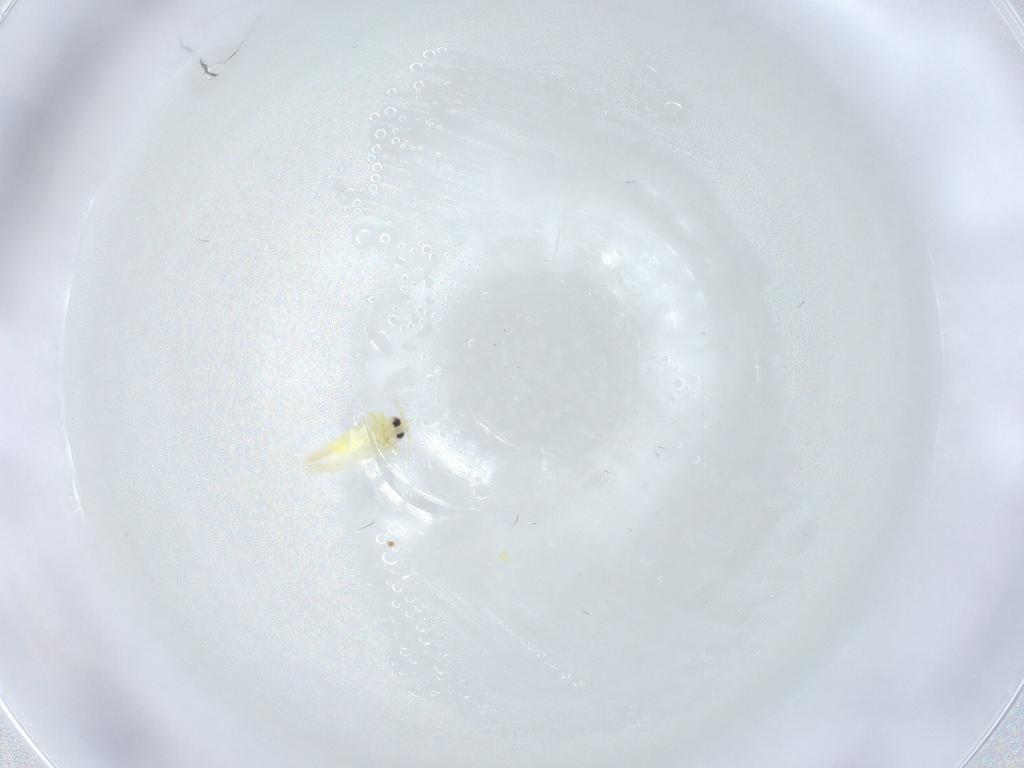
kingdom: Animalia
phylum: Arthropoda
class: Insecta
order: Hemiptera
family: Aleyrodidae
